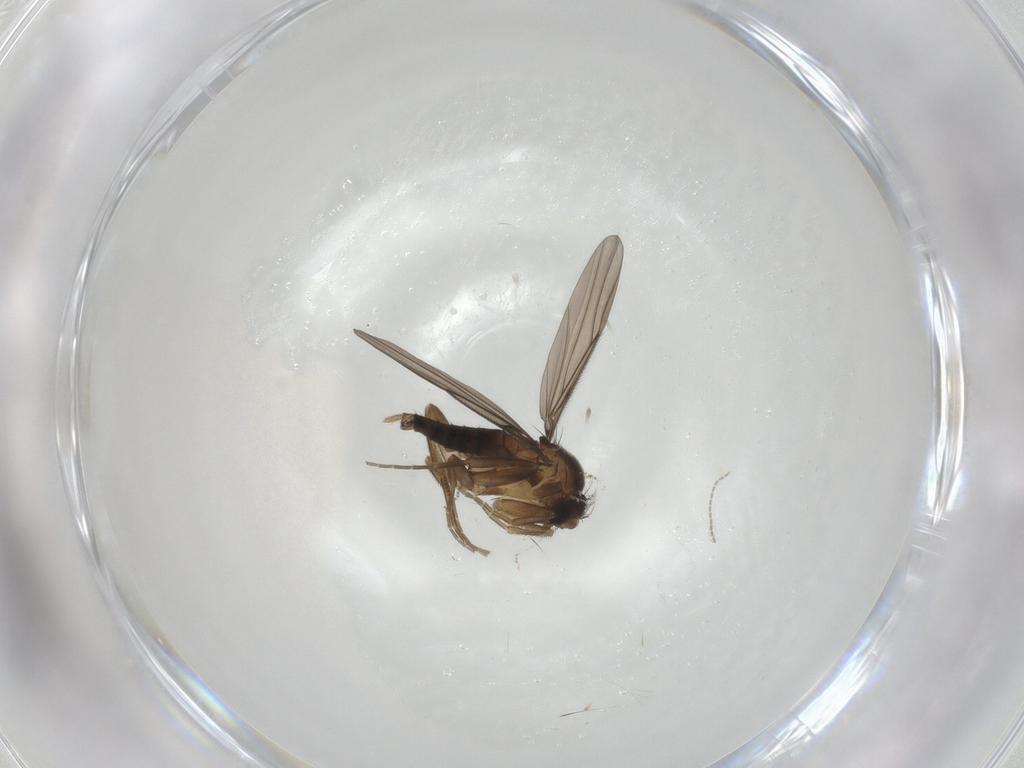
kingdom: Animalia
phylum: Arthropoda
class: Insecta
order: Diptera
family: Phoridae
